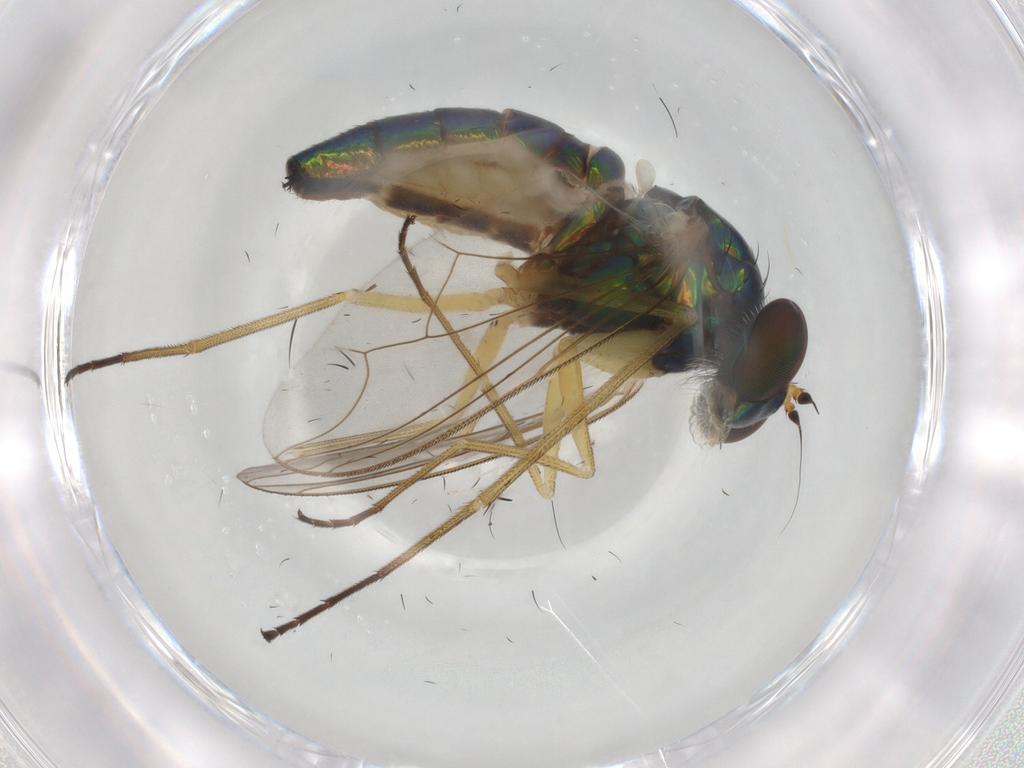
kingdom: Animalia
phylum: Arthropoda
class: Insecta
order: Diptera
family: Dolichopodidae
